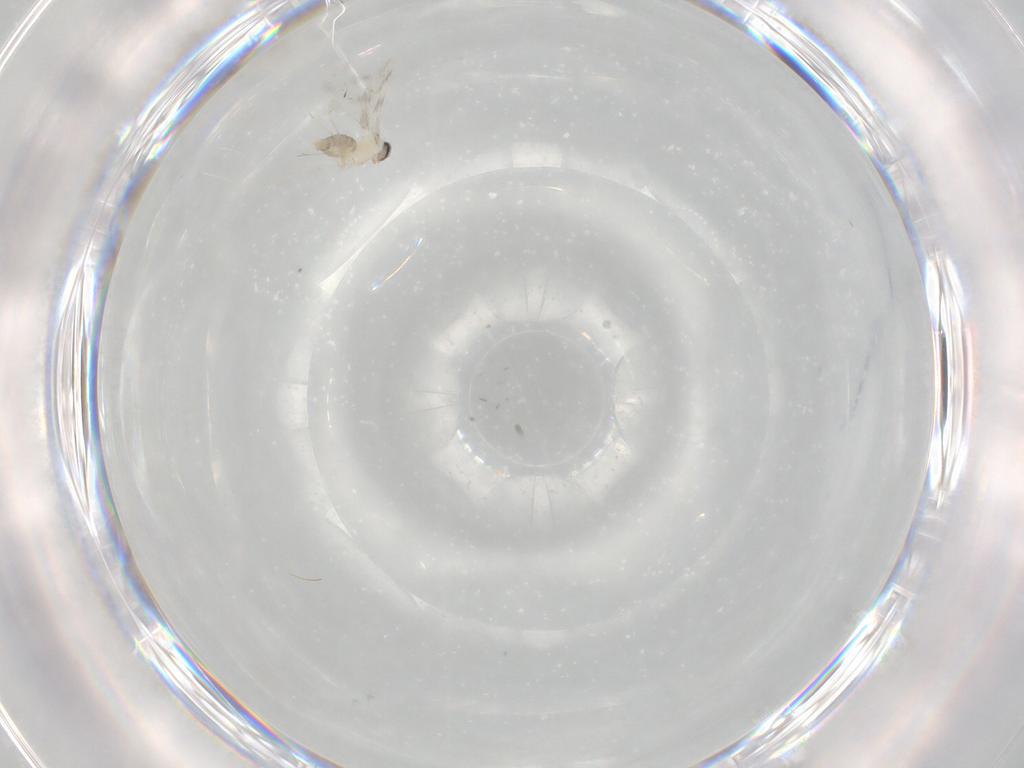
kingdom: Animalia
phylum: Arthropoda
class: Insecta
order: Diptera
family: Cecidomyiidae
